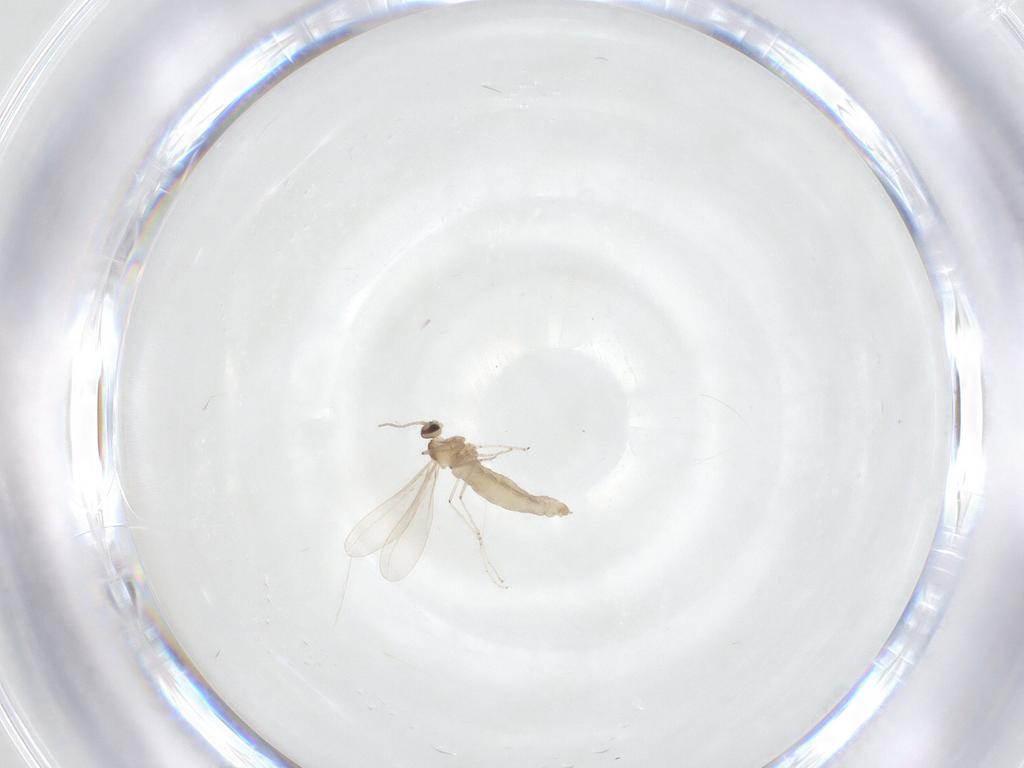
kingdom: Animalia
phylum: Arthropoda
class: Insecta
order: Diptera
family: Cecidomyiidae
